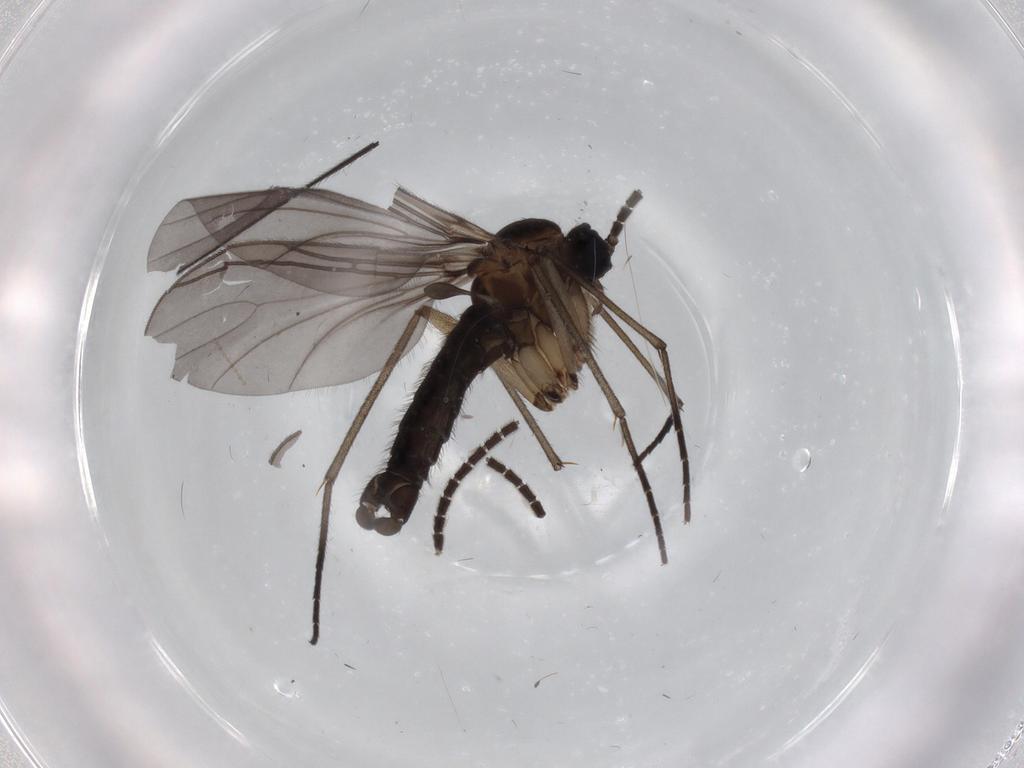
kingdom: Animalia
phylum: Arthropoda
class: Insecta
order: Diptera
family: Sciaridae
